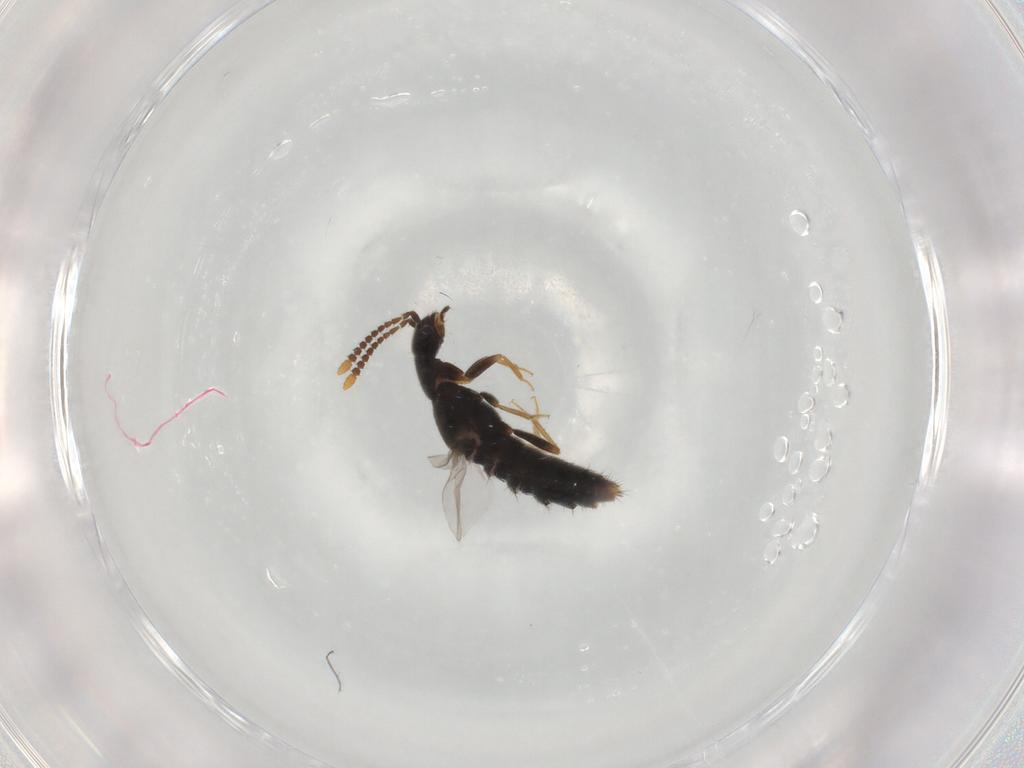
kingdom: Animalia
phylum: Arthropoda
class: Insecta
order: Coleoptera
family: Staphylinidae
